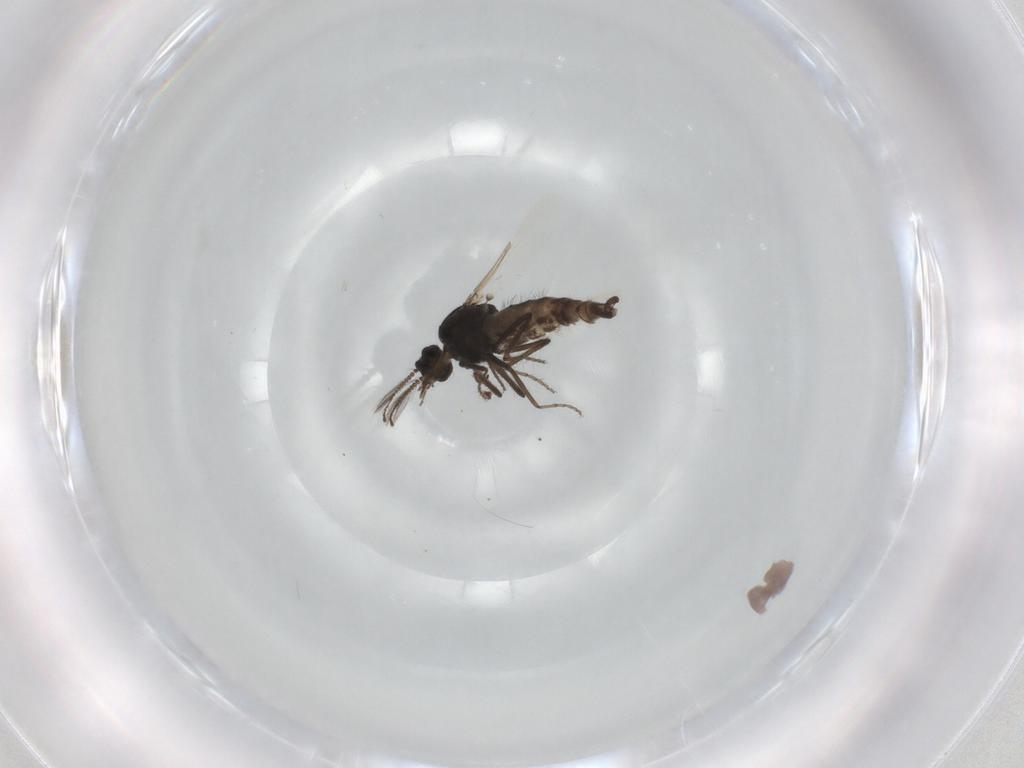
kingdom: Animalia
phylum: Arthropoda
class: Insecta
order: Diptera
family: Ceratopogonidae
